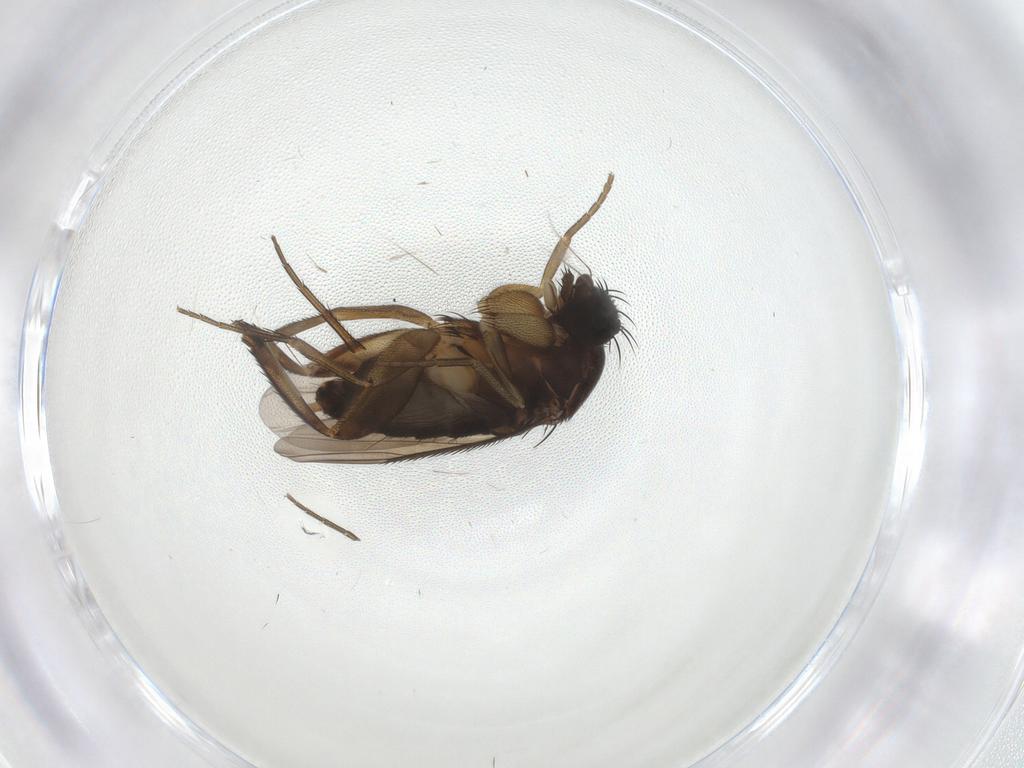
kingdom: Animalia
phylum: Arthropoda
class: Insecta
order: Diptera
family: Phoridae
